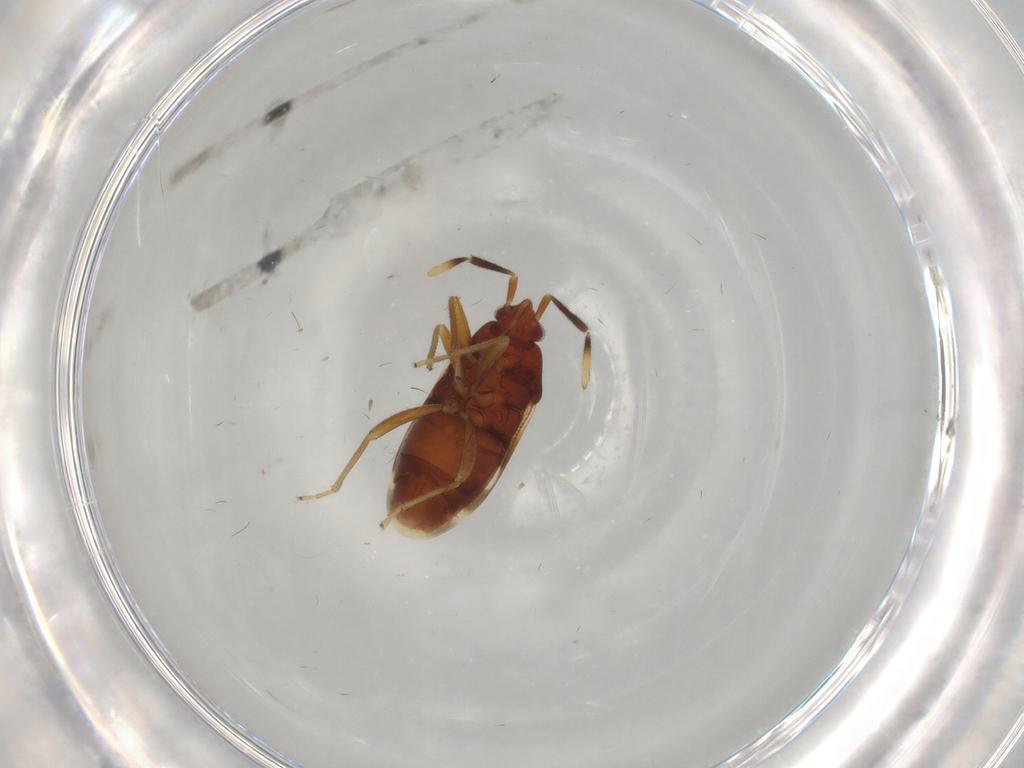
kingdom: Animalia
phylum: Arthropoda
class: Insecta
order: Hemiptera
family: Rhyparochromidae
